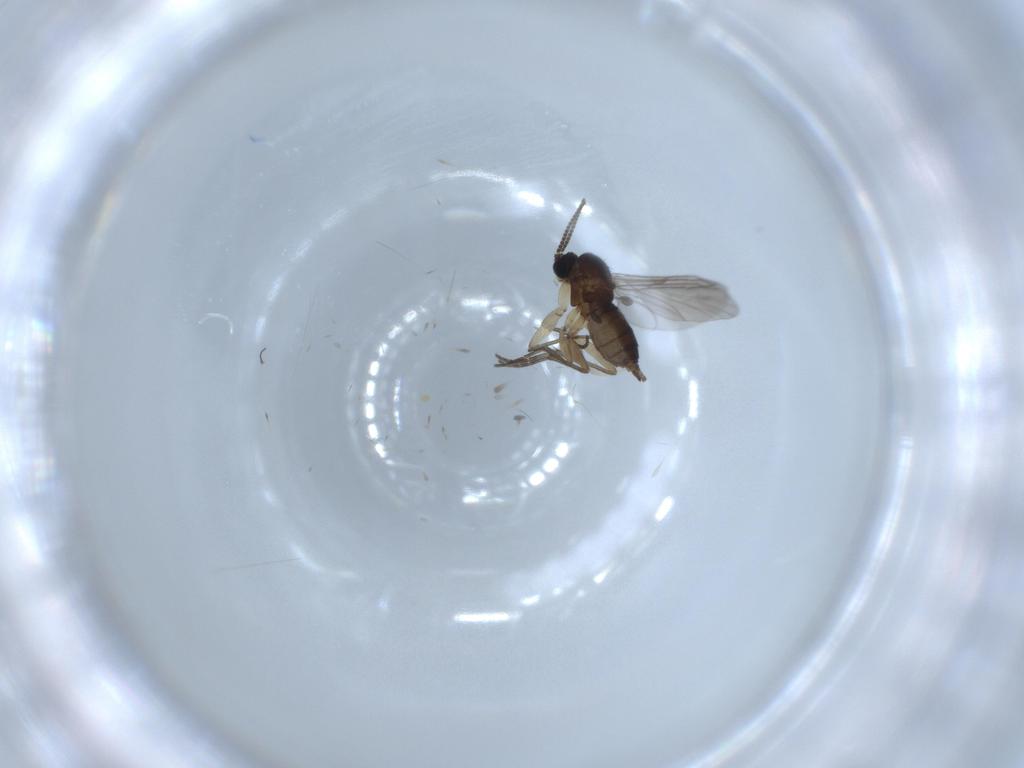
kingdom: Animalia
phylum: Arthropoda
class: Insecta
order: Diptera
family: Sciaridae
